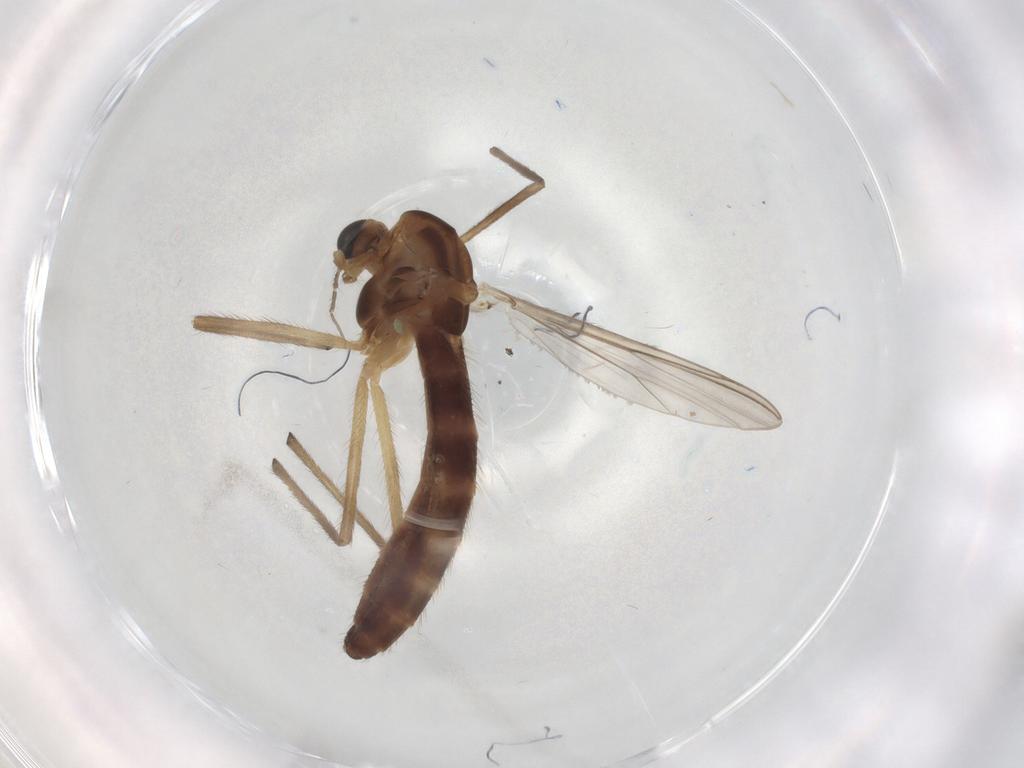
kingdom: Animalia
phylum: Arthropoda
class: Insecta
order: Diptera
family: Chironomidae
